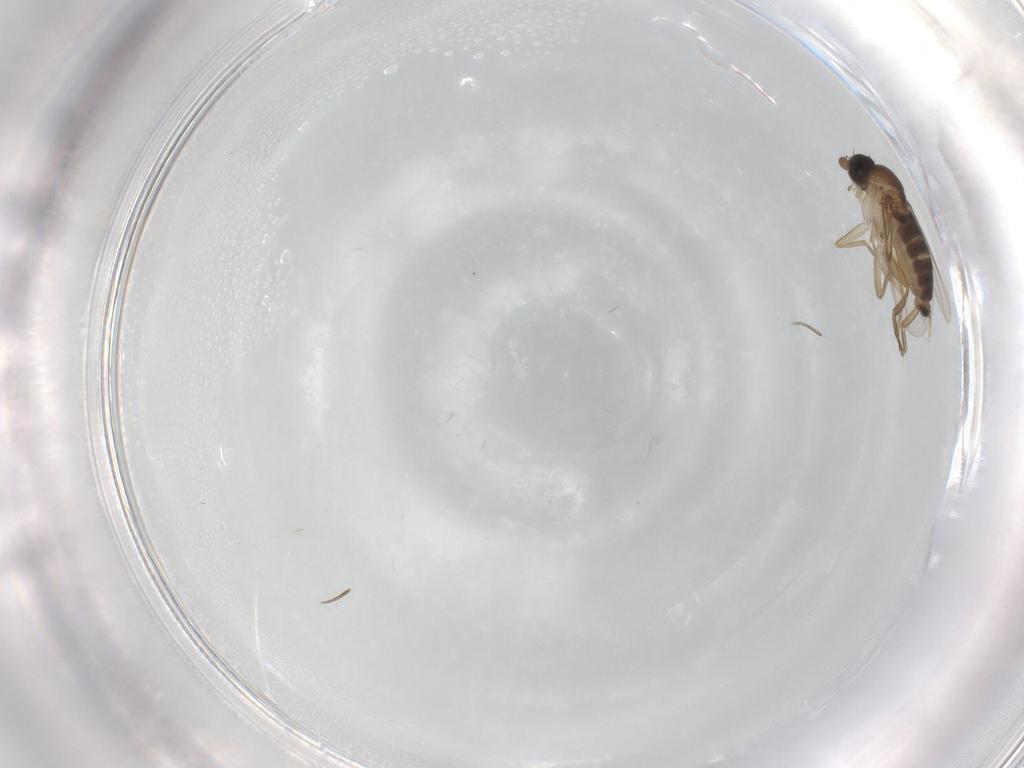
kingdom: Animalia
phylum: Arthropoda
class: Insecta
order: Diptera
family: Phoridae
